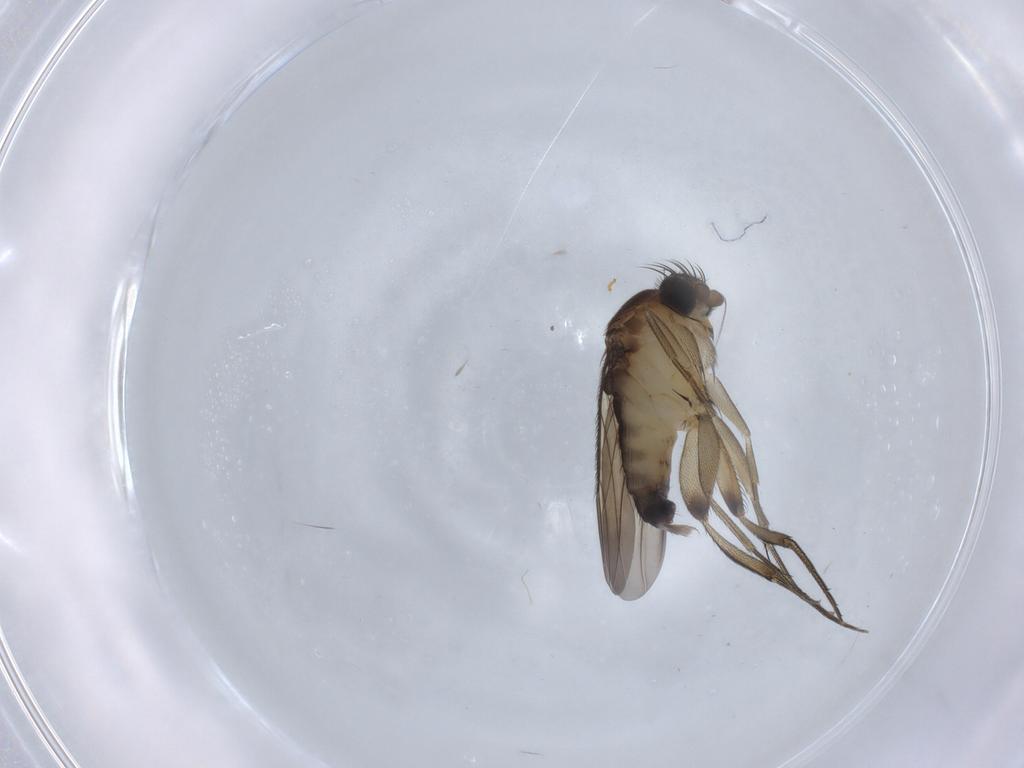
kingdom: Animalia
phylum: Arthropoda
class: Insecta
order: Diptera
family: Phoridae
